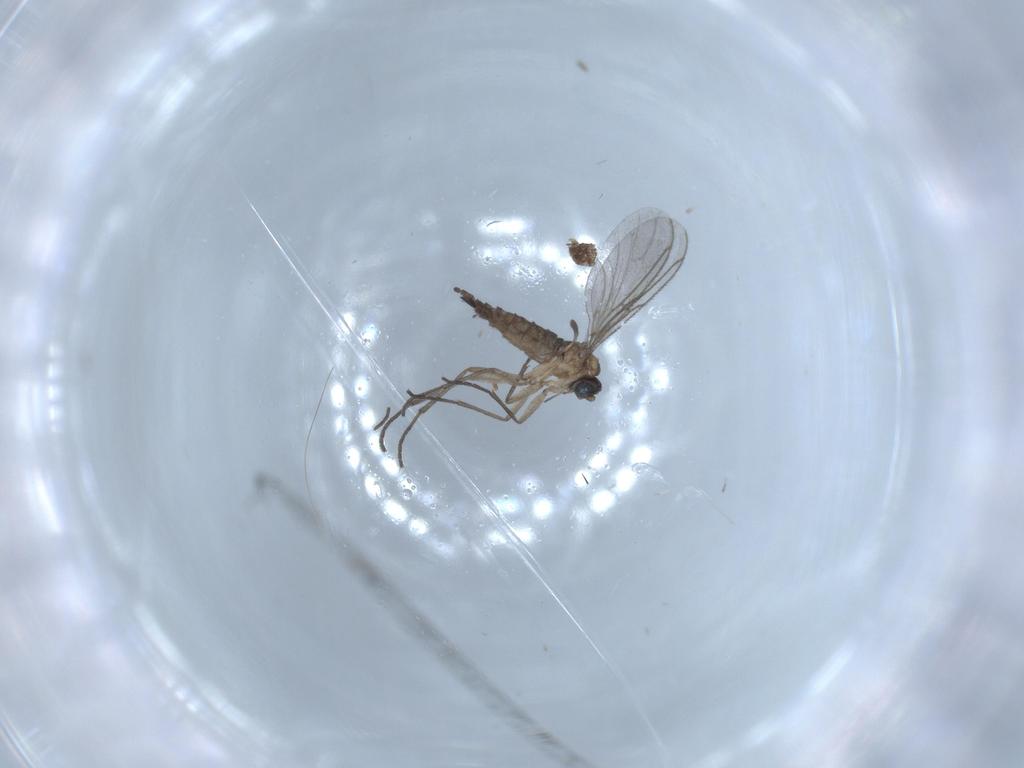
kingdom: Animalia
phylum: Arthropoda
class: Insecta
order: Diptera
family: Sciaridae
